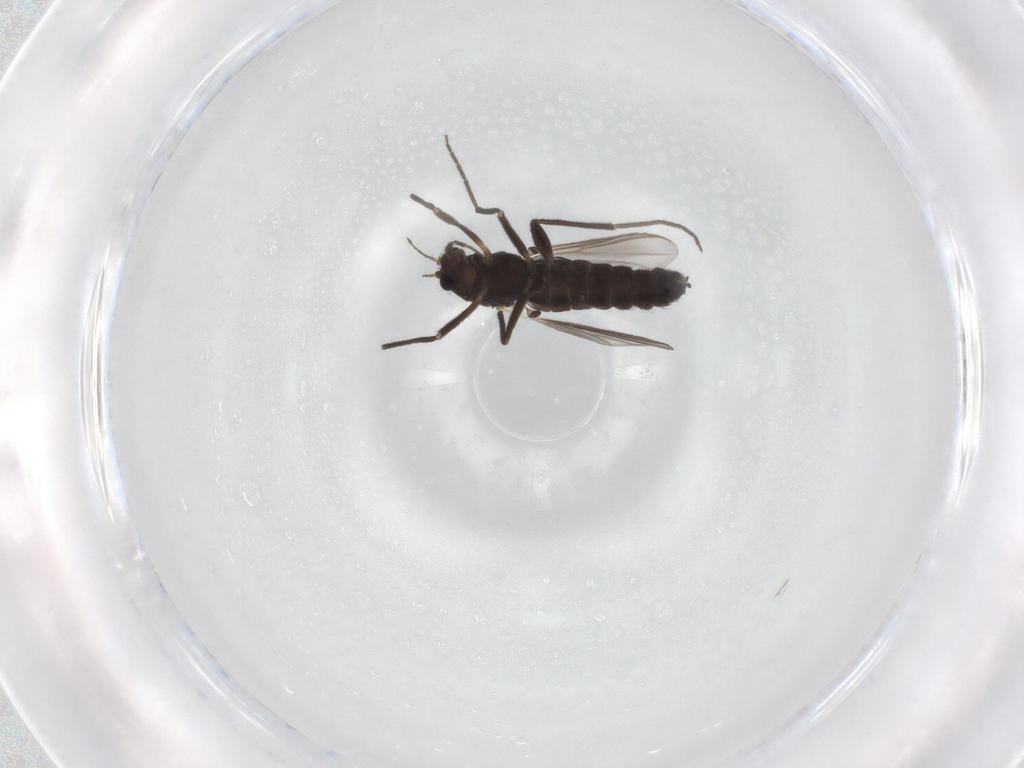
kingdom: Animalia
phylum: Arthropoda
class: Insecta
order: Diptera
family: Chironomidae
